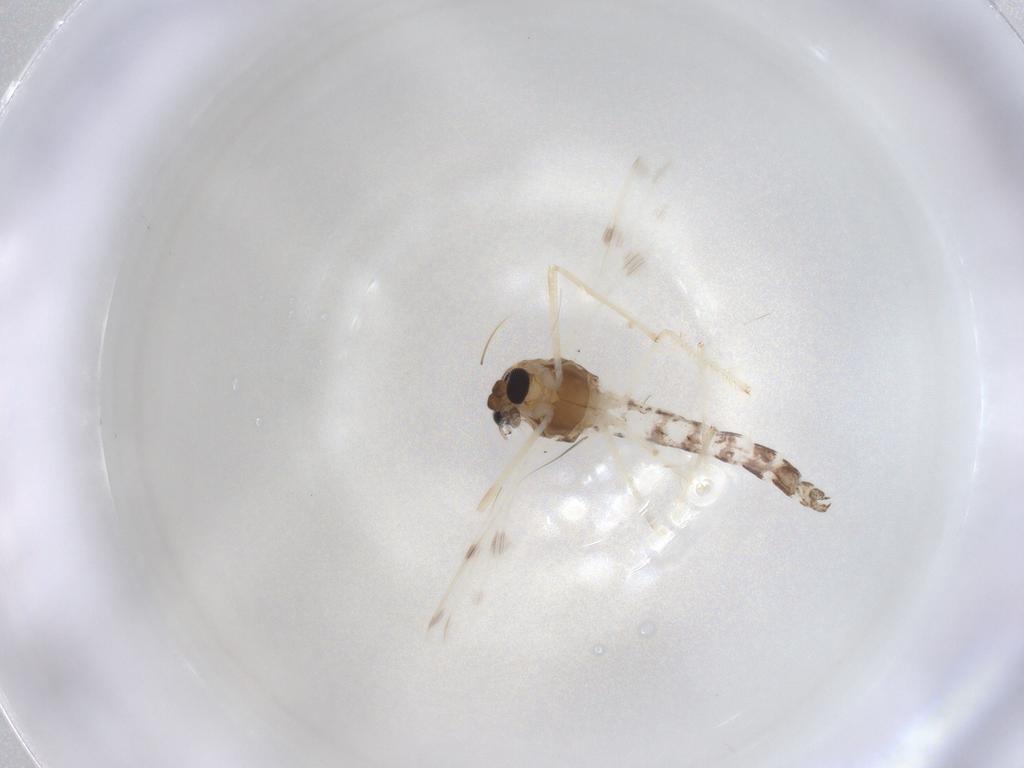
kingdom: Animalia
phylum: Arthropoda
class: Insecta
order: Diptera
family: Chironomidae
